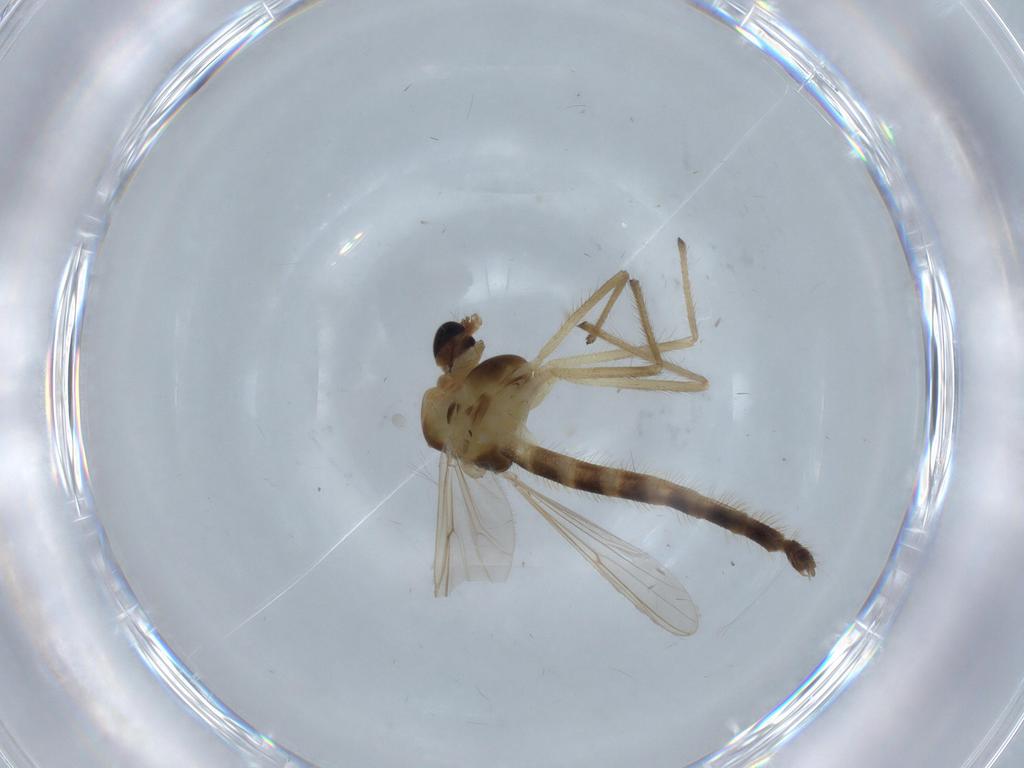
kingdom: Animalia
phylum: Arthropoda
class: Insecta
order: Diptera
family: Chironomidae
